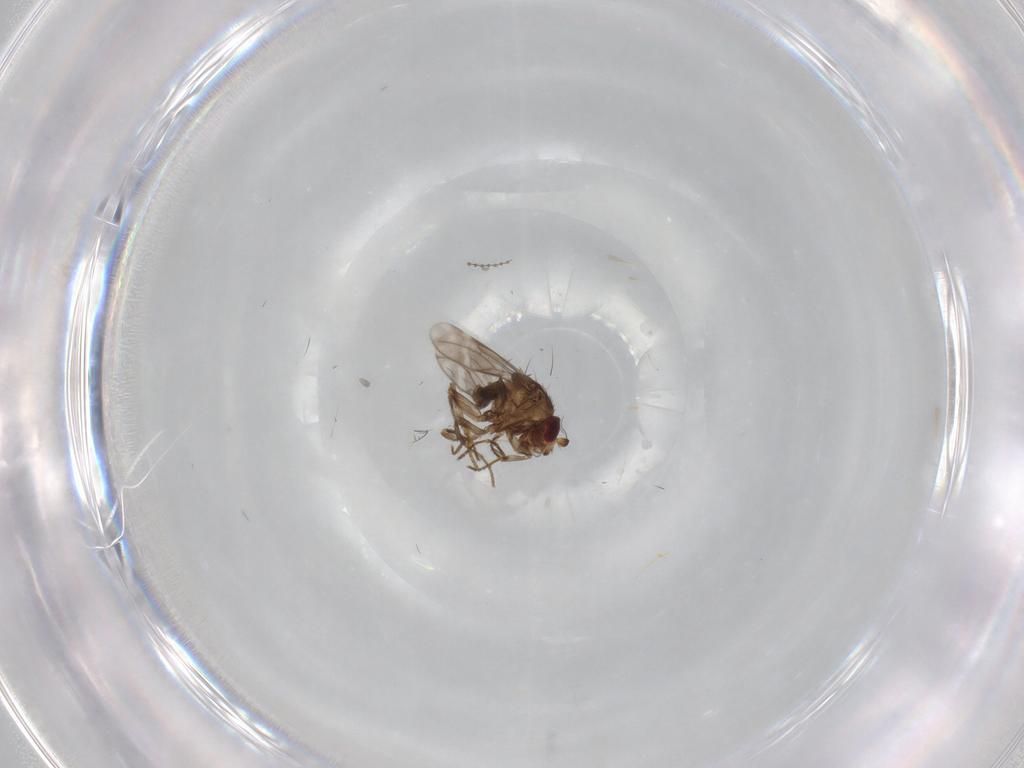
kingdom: Animalia
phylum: Arthropoda
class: Insecta
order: Diptera
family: Sphaeroceridae
